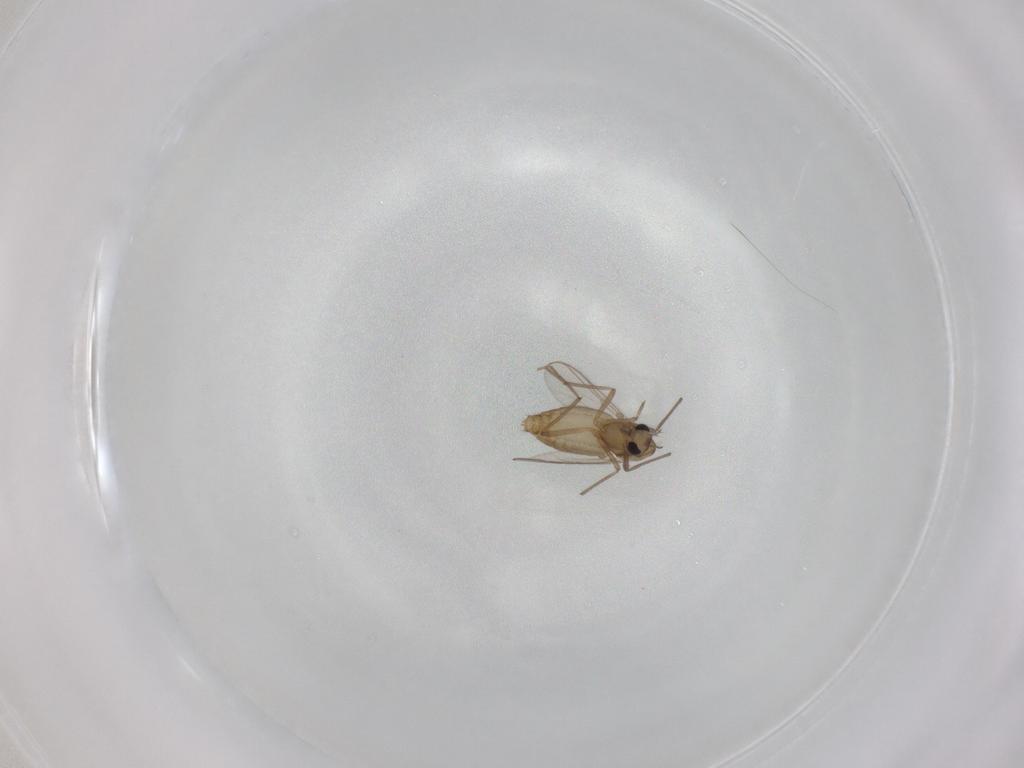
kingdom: Animalia
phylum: Arthropoda
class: Insecta
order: Diptera
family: Chironomidae
